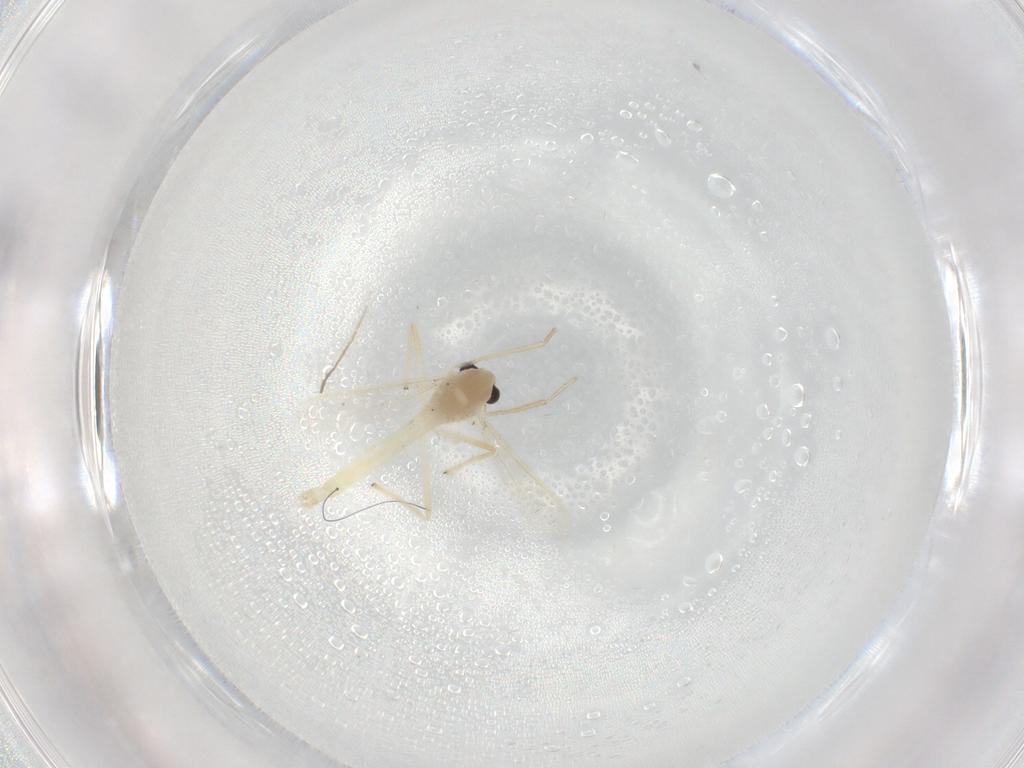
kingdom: Animalia
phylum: Arthropoda
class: Insecta
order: Diptera
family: Chironomidae
